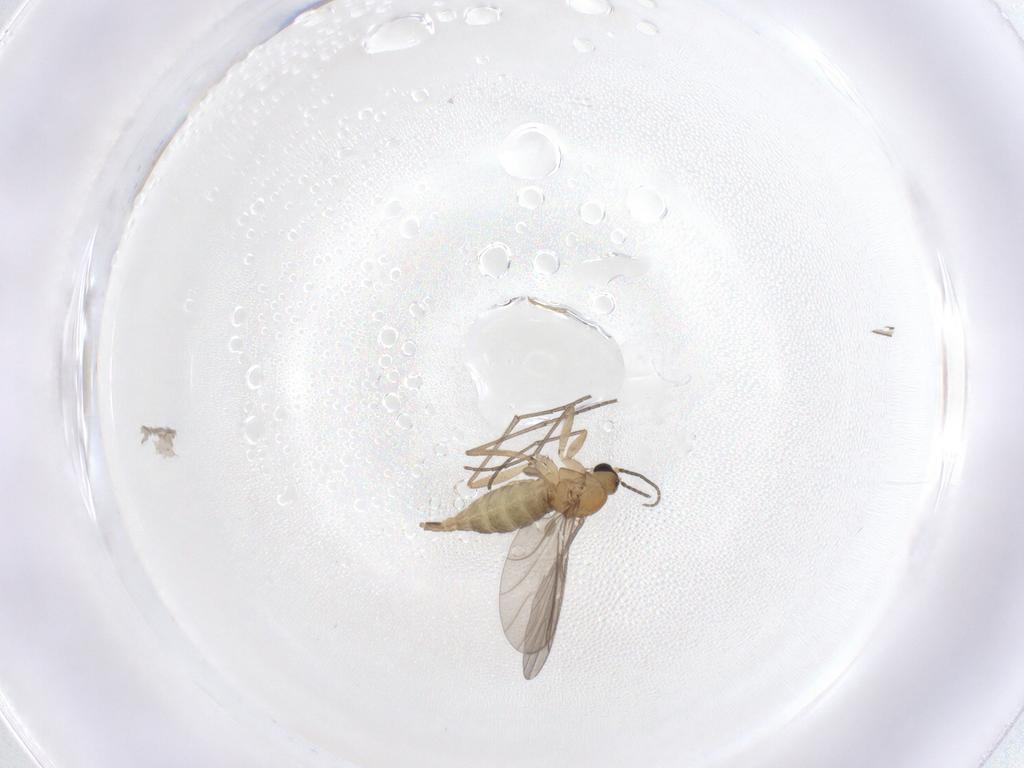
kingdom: Animalia
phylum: Arthropoda
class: Insecta
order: Diptera
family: Sciaridae
